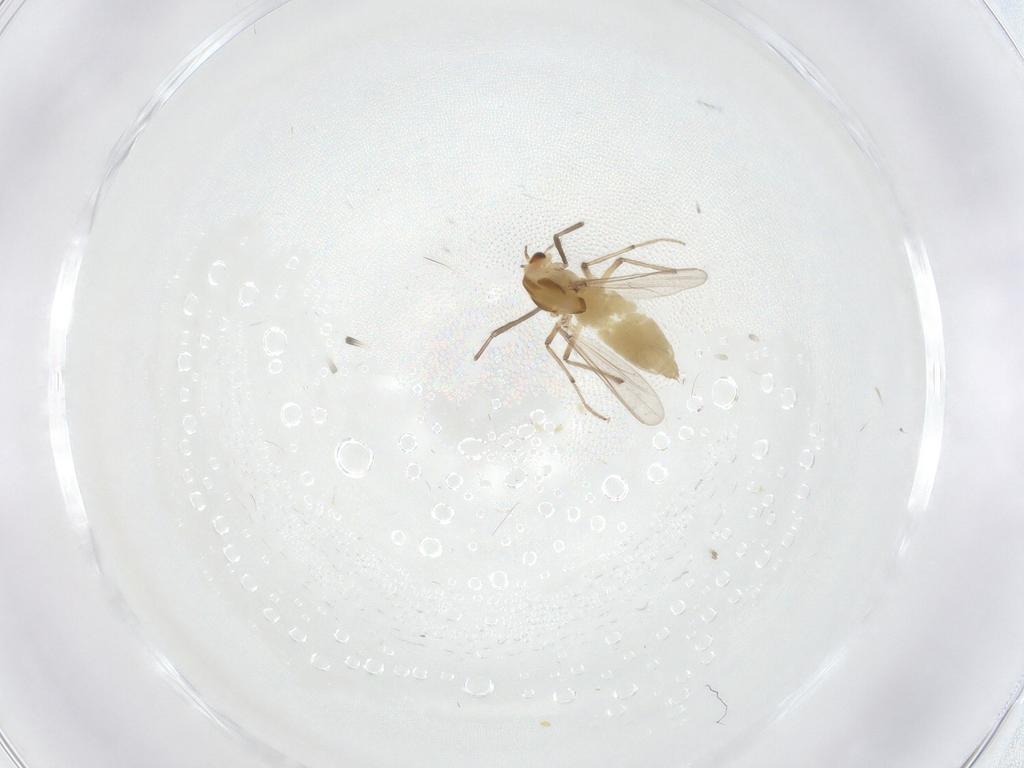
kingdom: Animalia
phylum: Arthropoda
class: Insecta
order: Diptera
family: Chironomidae
